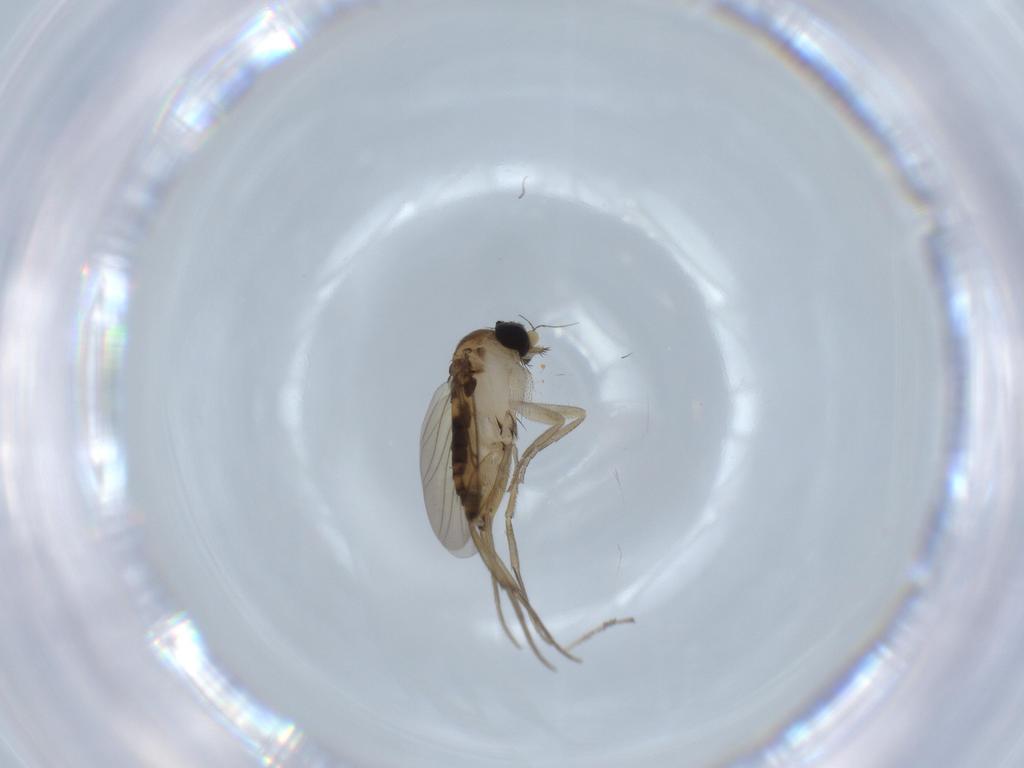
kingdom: Animalia
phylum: Arthropoda
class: Insecta
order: Diptera
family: Phoridae
